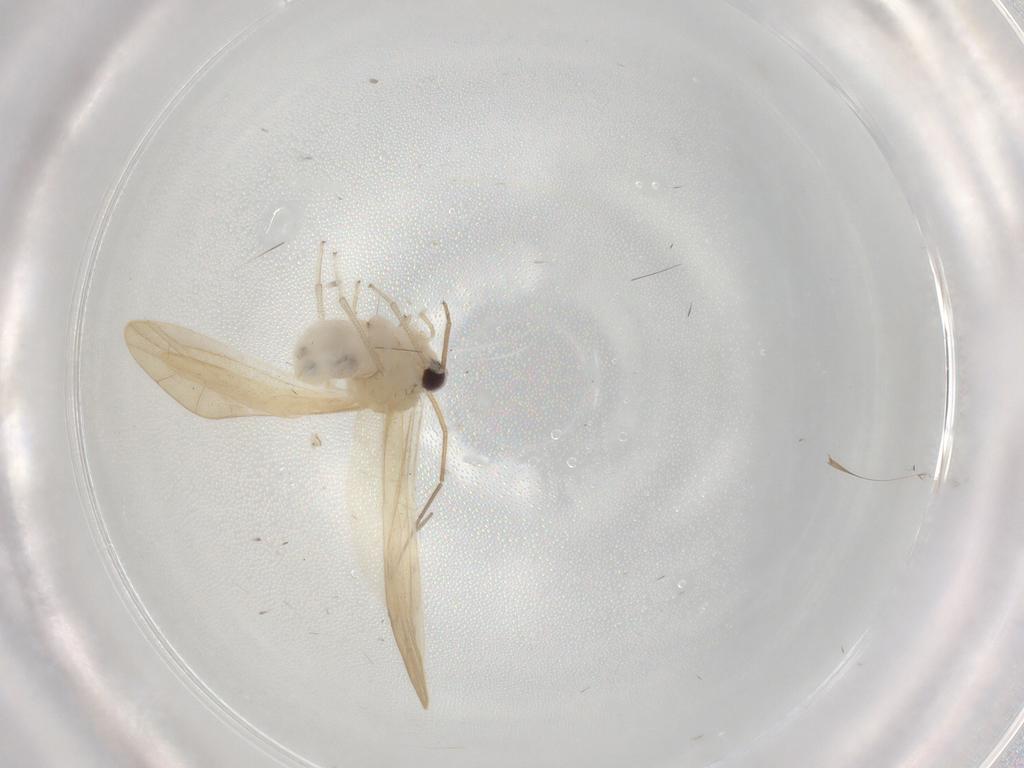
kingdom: Animalia
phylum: Arthropoda
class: Insecta
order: Psocodea
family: Caeciliusidae
